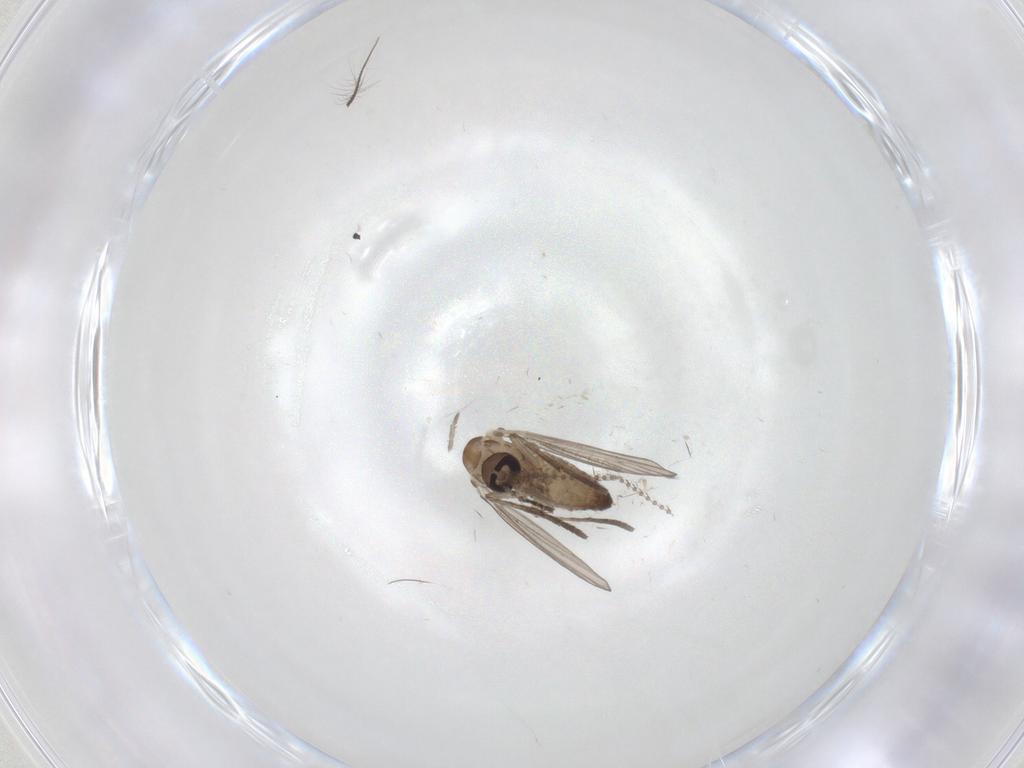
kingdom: Animalia
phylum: Arthropoda
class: Insecta
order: Diptera
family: Psychodidae
